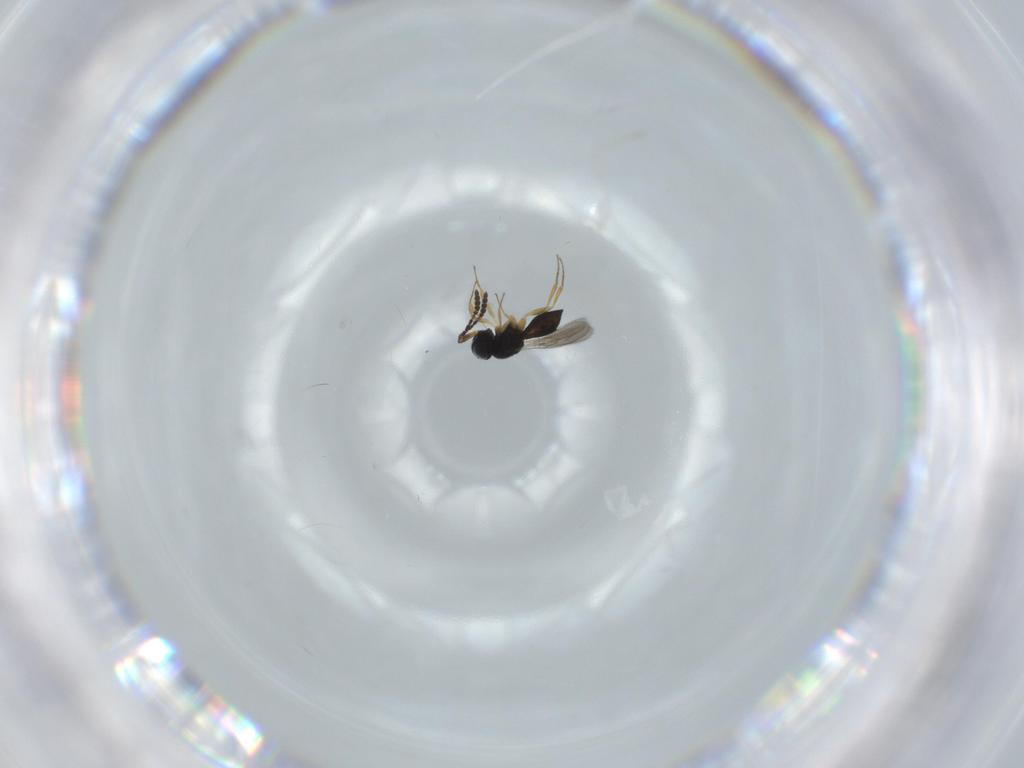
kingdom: Animalia
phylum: Arthropoda
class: Insecta
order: Hymenoptera
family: Scelionidae
